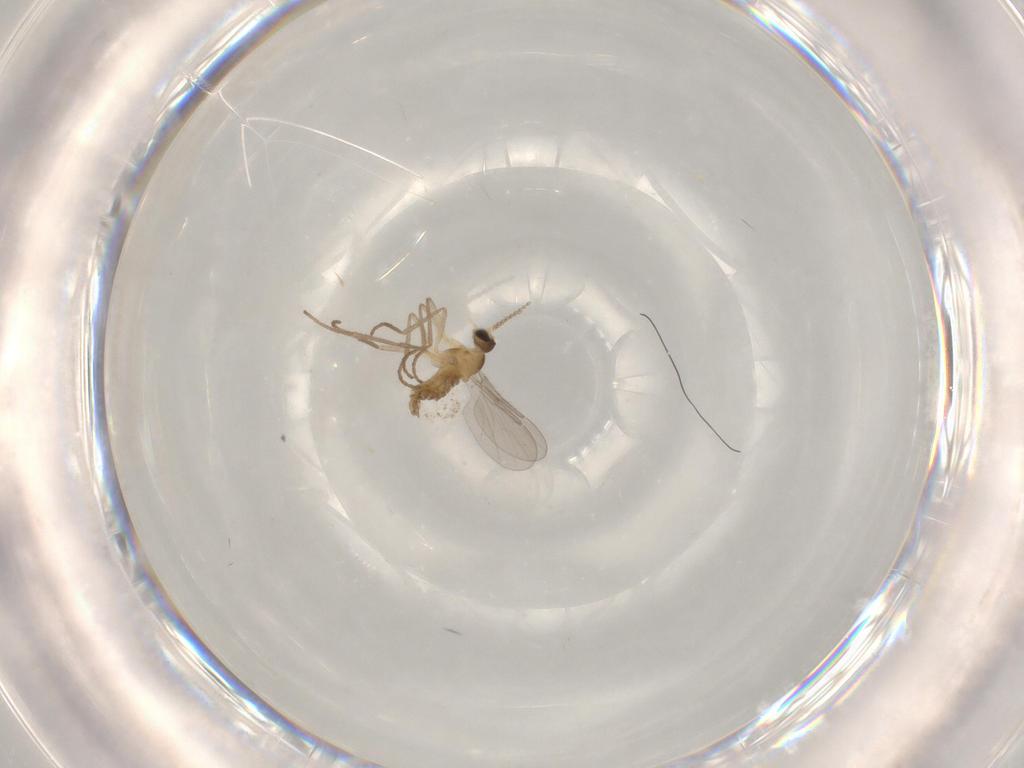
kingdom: Animalia
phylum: Arthropoda
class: Insecta
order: Diptera
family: Cecidomyiidae
